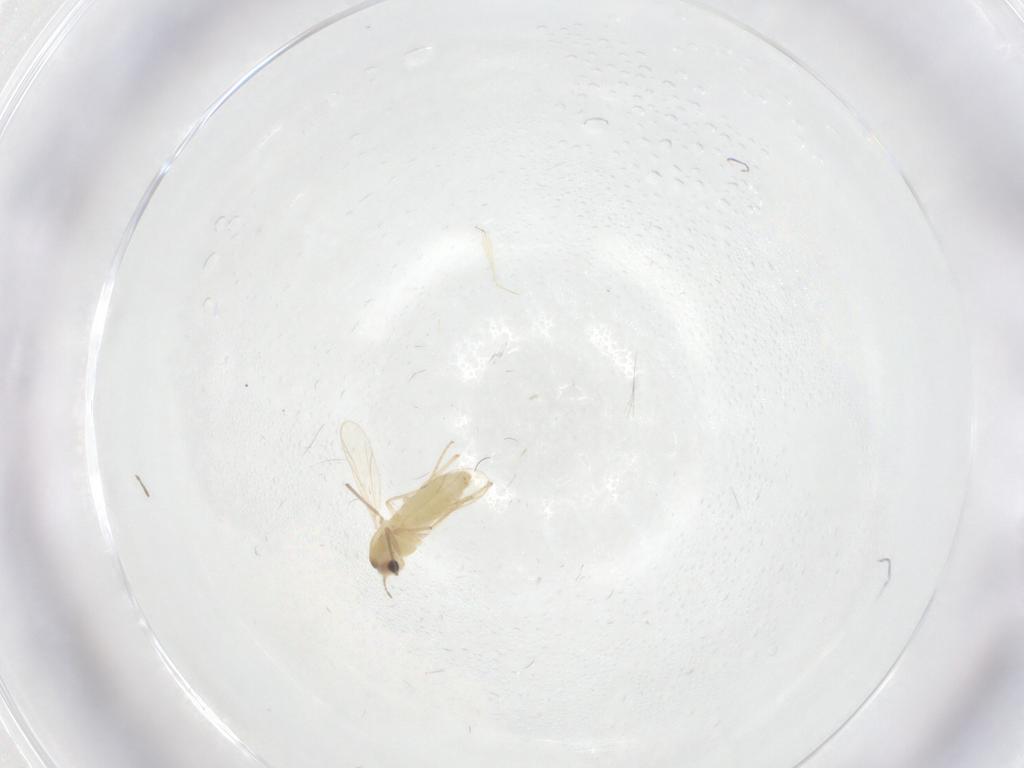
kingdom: Animalia
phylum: Arthropoda
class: Insecta
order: Diptera
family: Chironomidae
